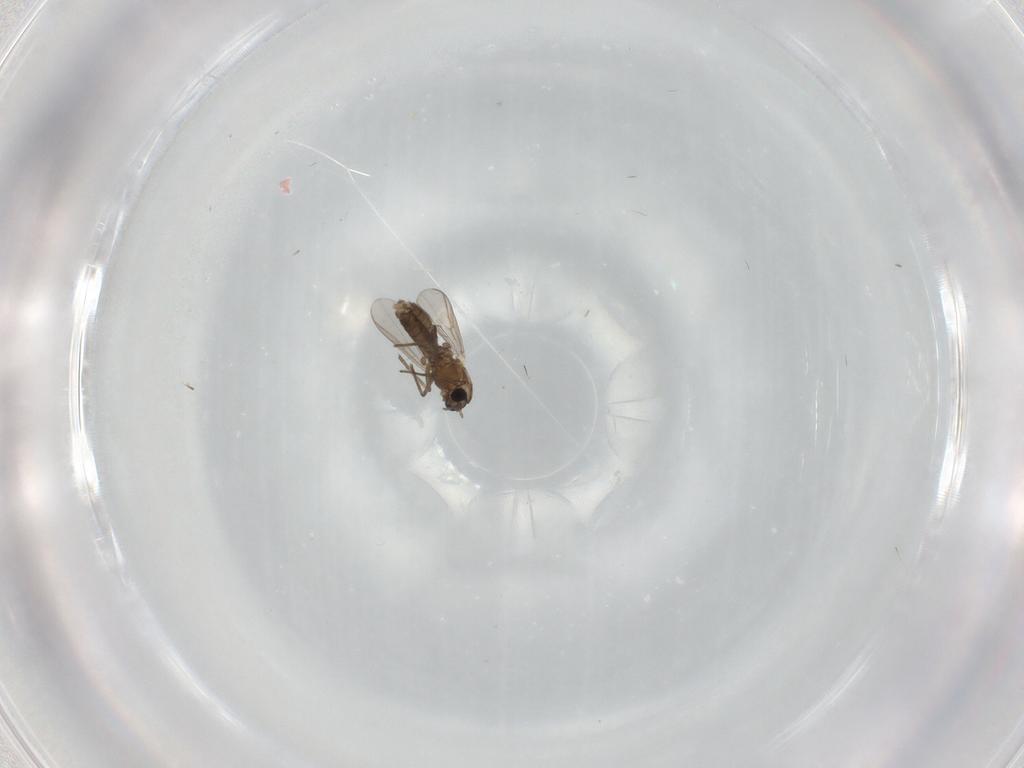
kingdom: Animalia
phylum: Arthropoda
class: Insecta
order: Diptera
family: Chironomidae
